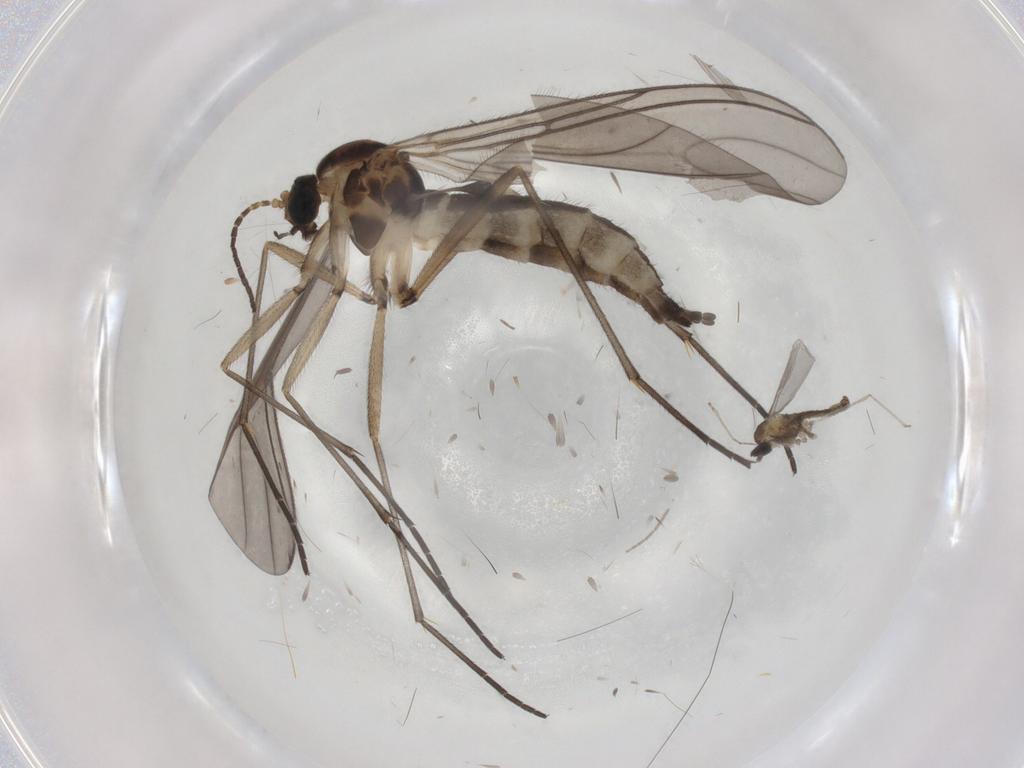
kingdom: Animalia
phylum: Arthropoda
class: Insecta
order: Diptera
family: Sciaridae
